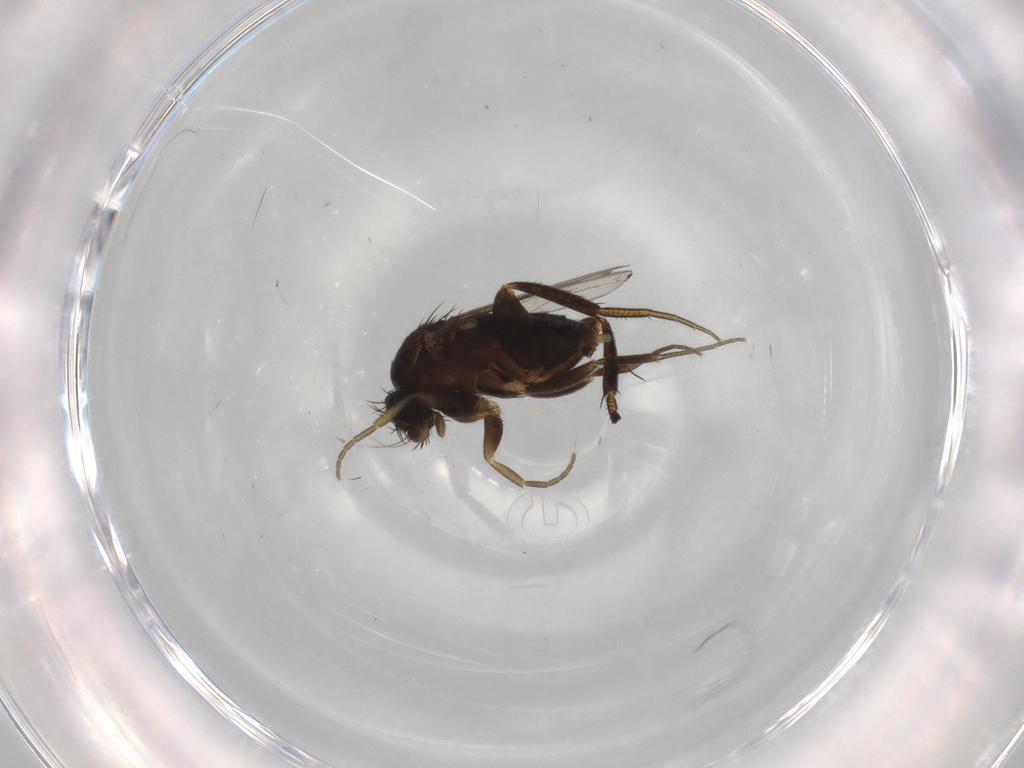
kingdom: Animalia
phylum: Arthropoda
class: Insecta
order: Diptera
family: Phoridae
